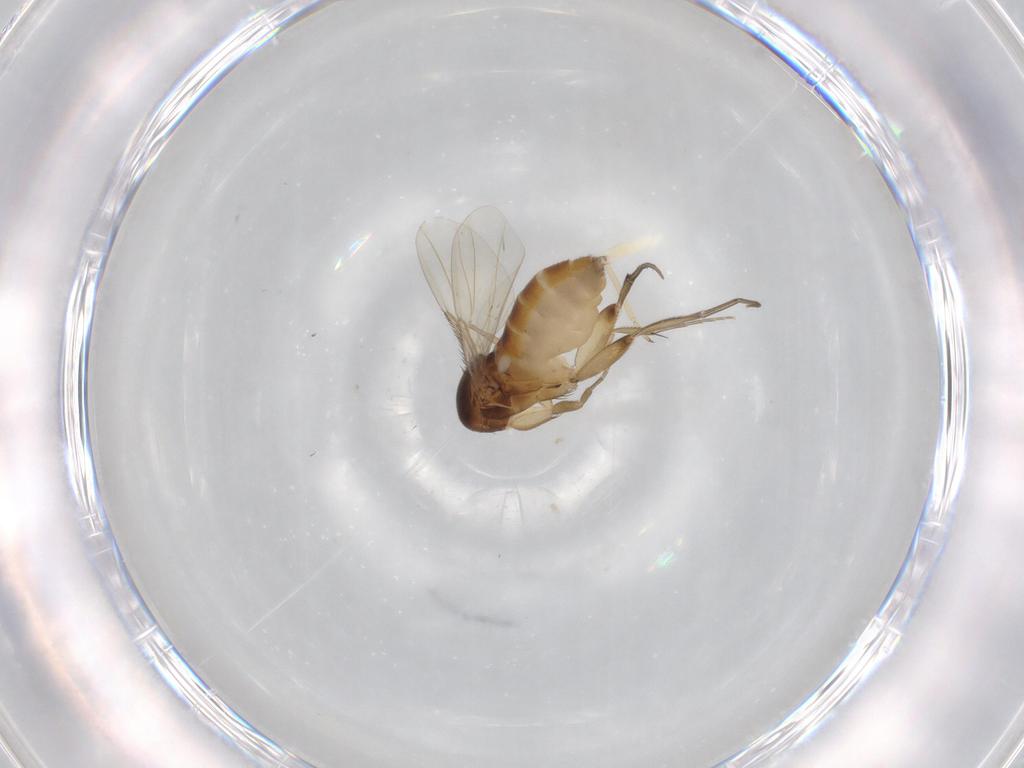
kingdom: Animalia
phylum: Arthropoda
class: Insecta
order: Diptera
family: Phoridae
